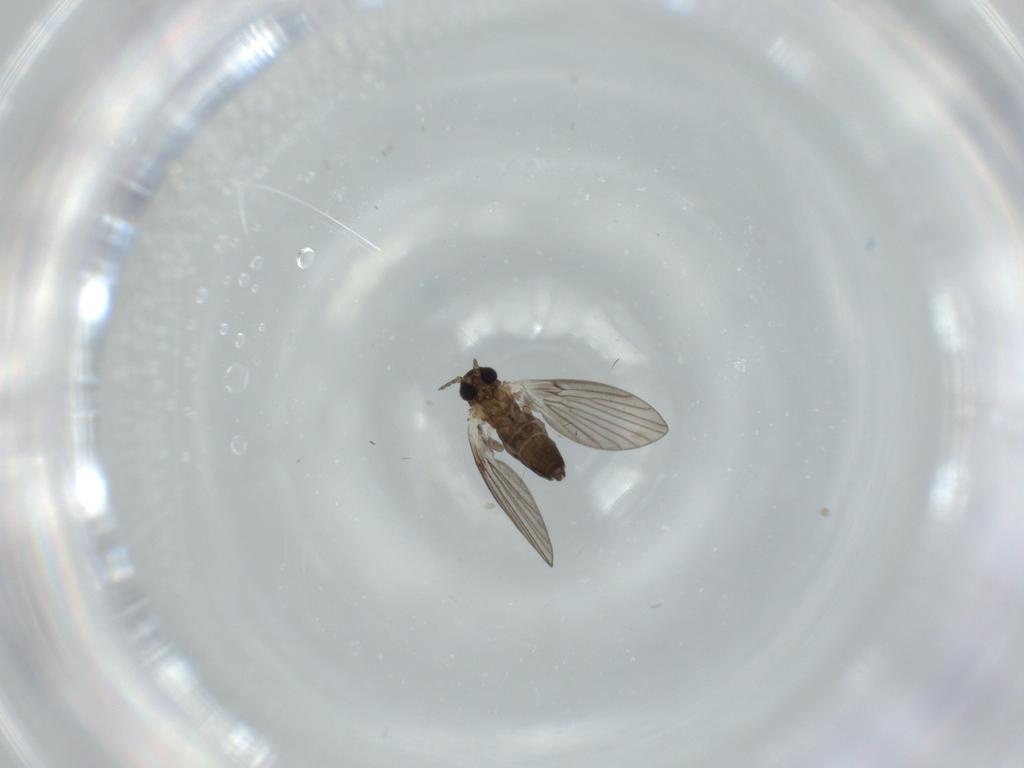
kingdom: Animalia
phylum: Arthropoda
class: Insecta
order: Diptera
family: Psychodidae
